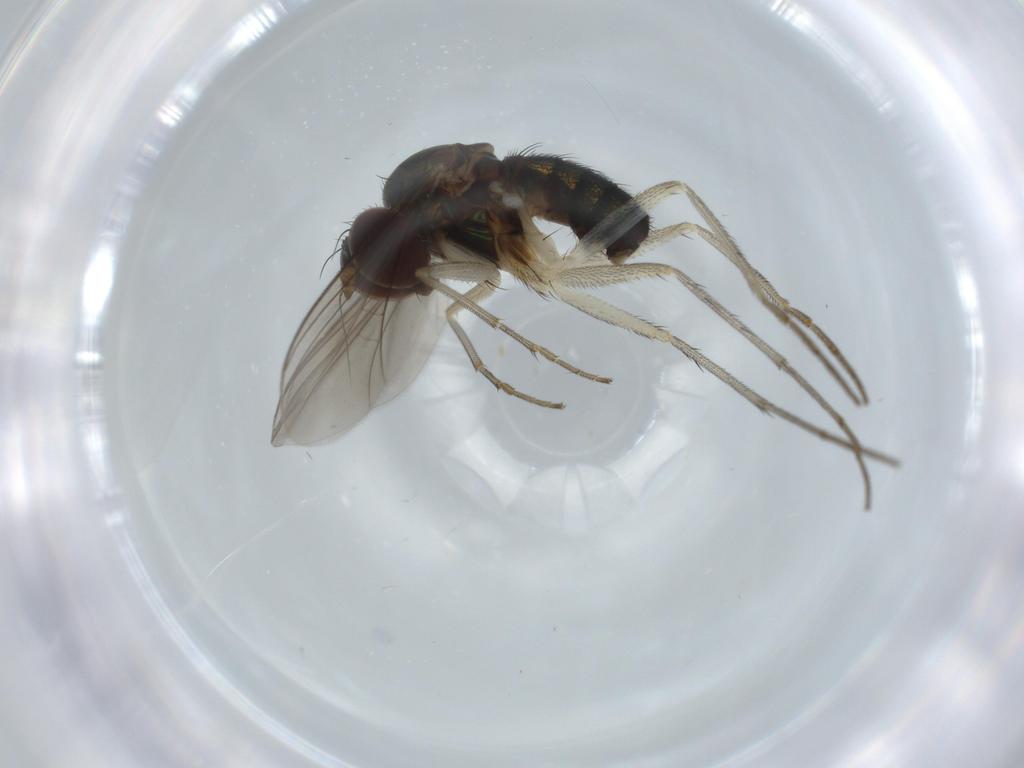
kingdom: Animalia
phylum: Arthropoda
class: Insecta
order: Diptera
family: Dolichopodidae
